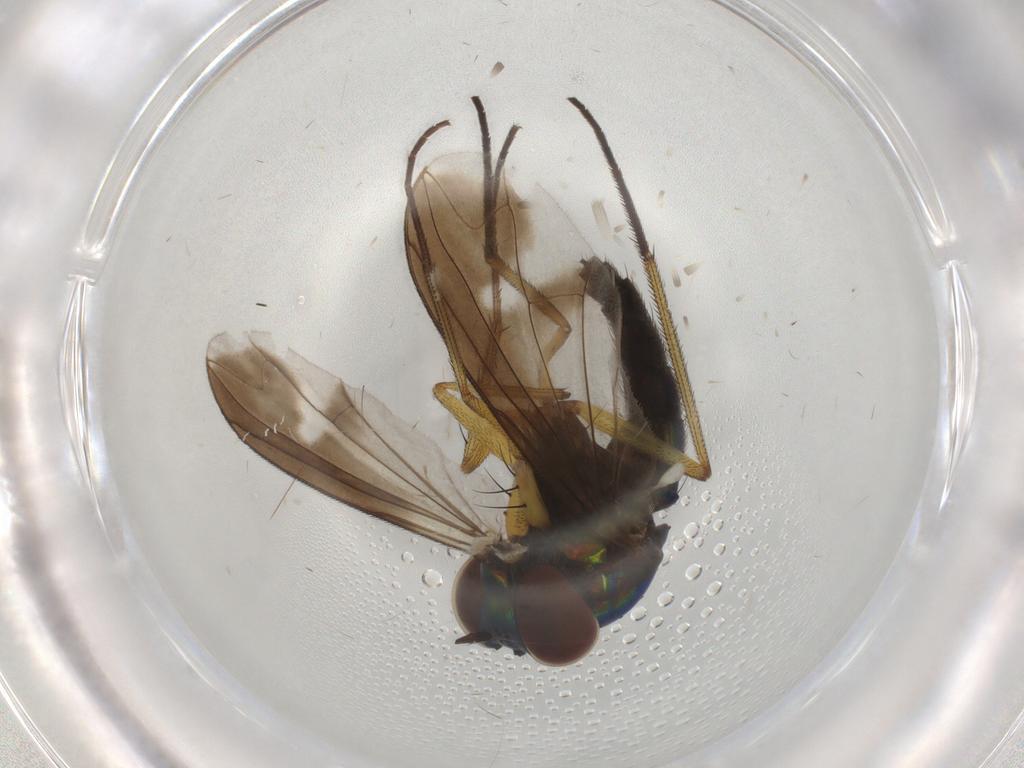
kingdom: Animalia
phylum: Arthropoda
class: Insecta
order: Diptera
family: Dolichopodidae
